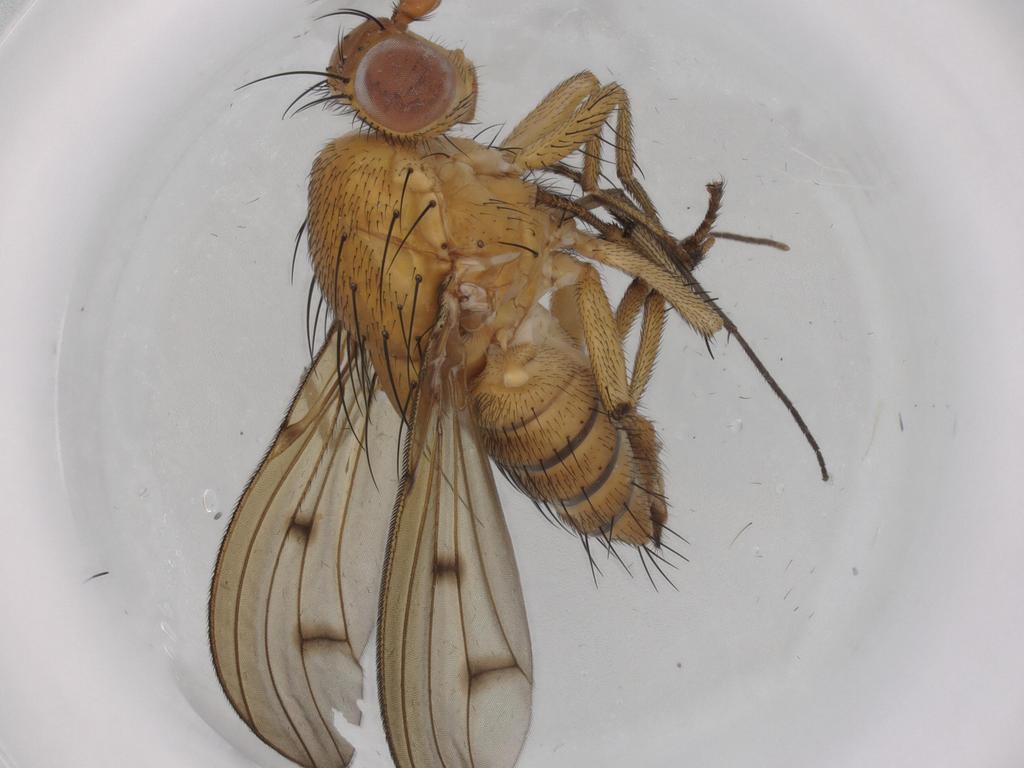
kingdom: Animalia
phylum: Arthropoda
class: Insecta
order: Diptera
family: Sciaridae
